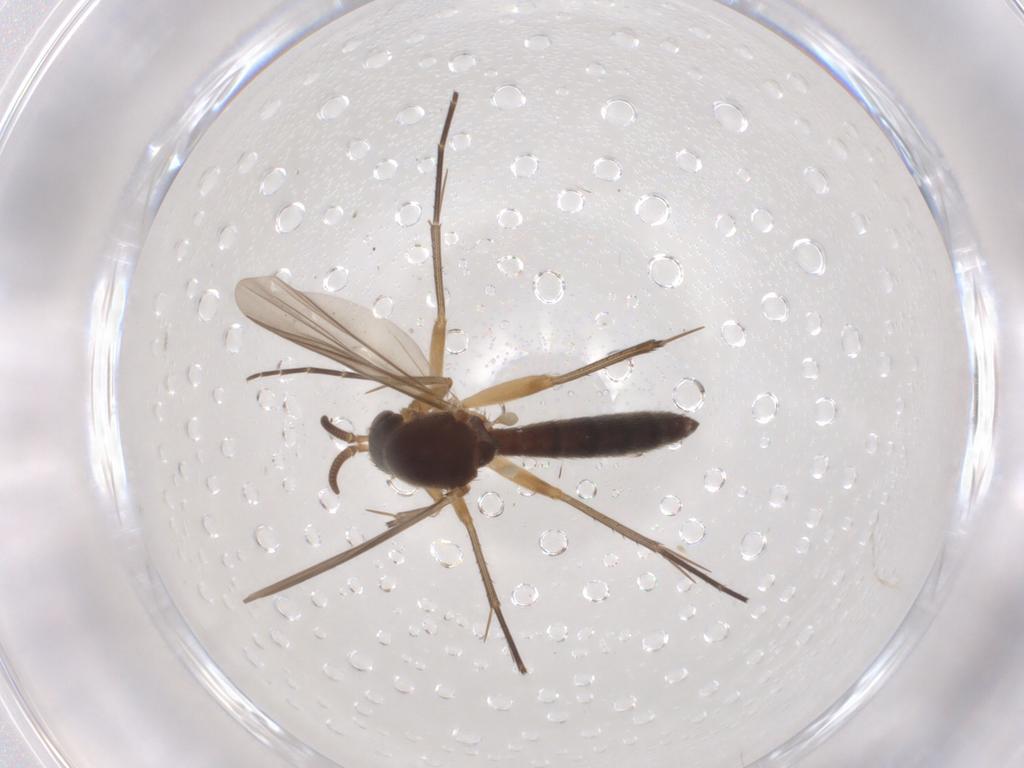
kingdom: Animalia
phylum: Arthropoda
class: Insecta
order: Diptera
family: Mycetophilidae
